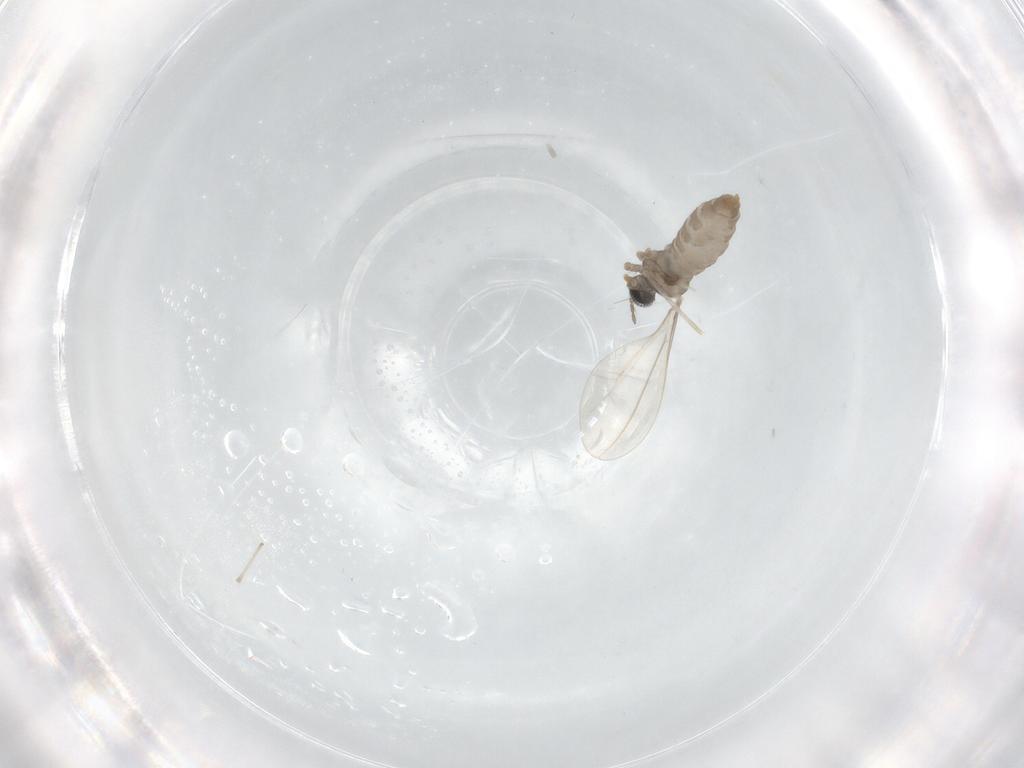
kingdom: Animalia
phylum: Arthropoda
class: Insecta
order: Diptera
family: Cecidomyiidae
